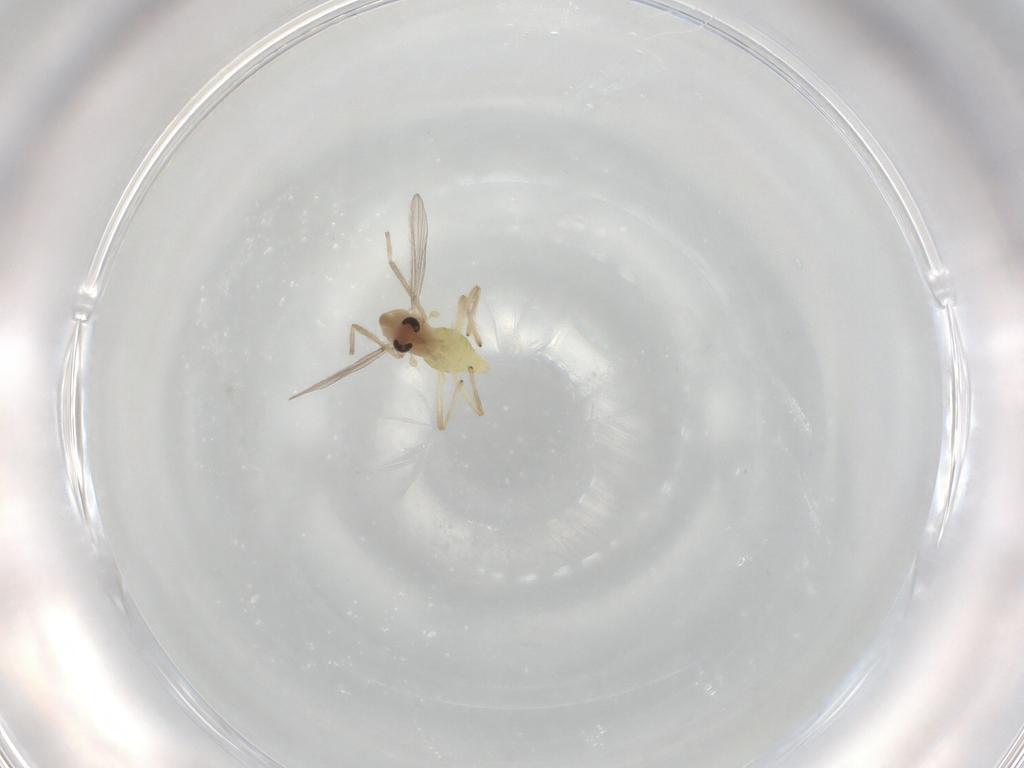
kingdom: Animalia
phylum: Arthropoda
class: Insecta
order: Diptera
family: Chironomidae
